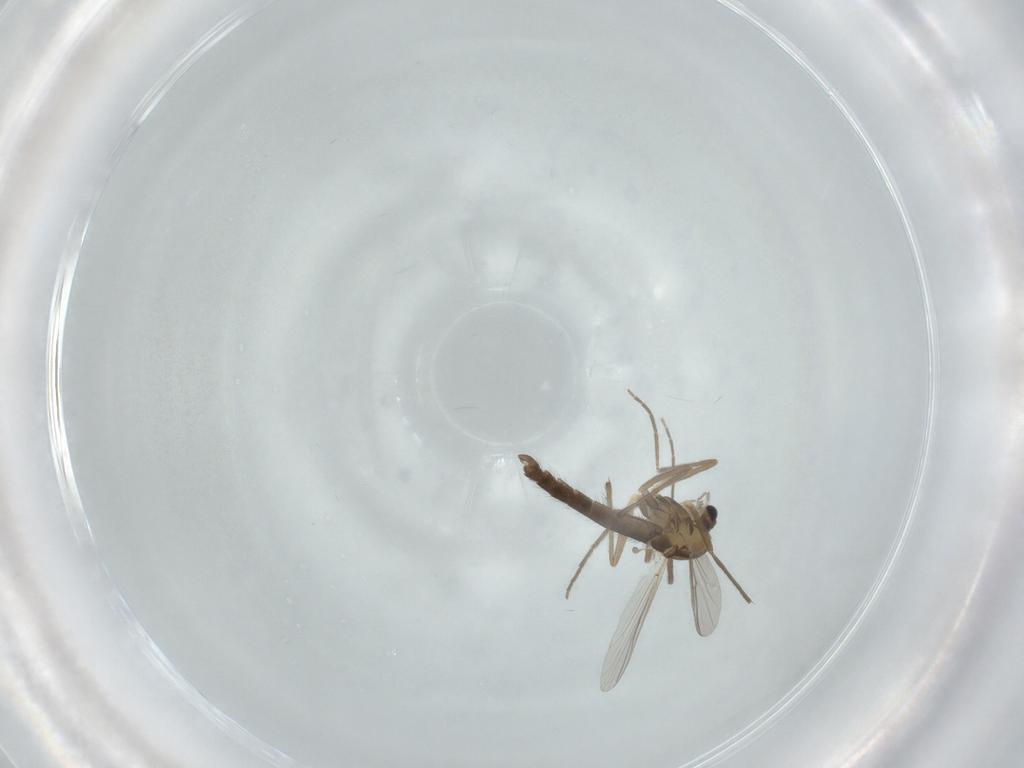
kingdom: Animalia
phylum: Arthropoda
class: Insecta
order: Diptera
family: Chironomidae
